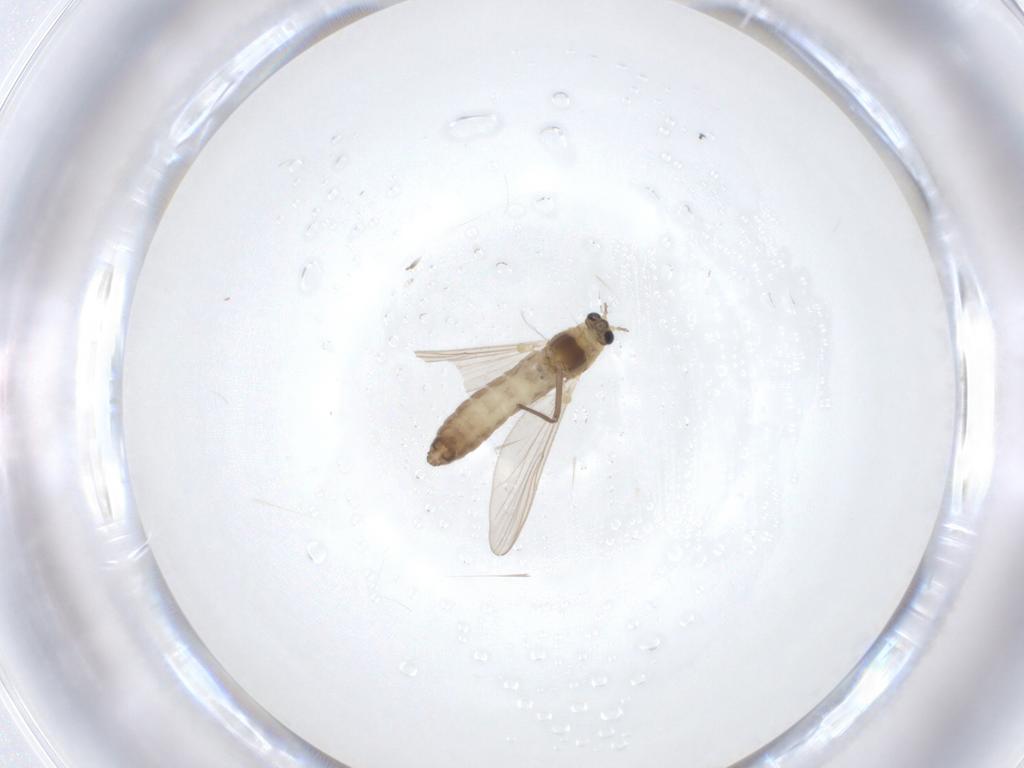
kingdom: Animalia
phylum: Arthropoda
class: Insecta
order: Diptera
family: Chironomidae
